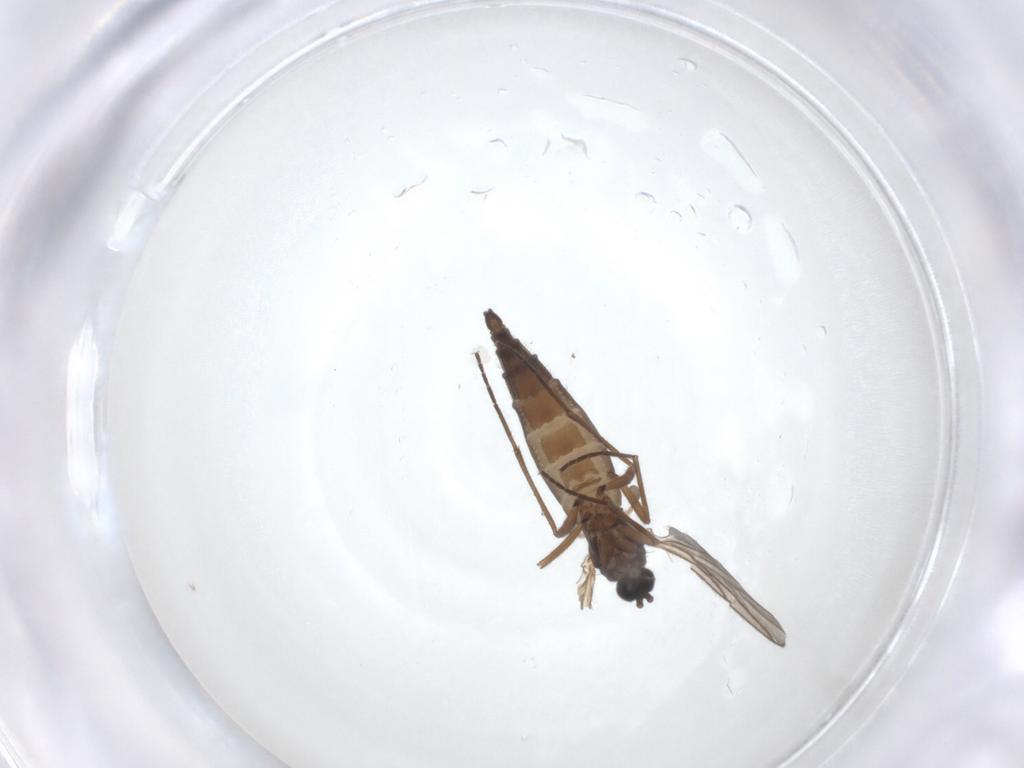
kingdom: Animalia
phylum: Arthropoda
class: Insecta
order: Diptera
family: Sciaridae
